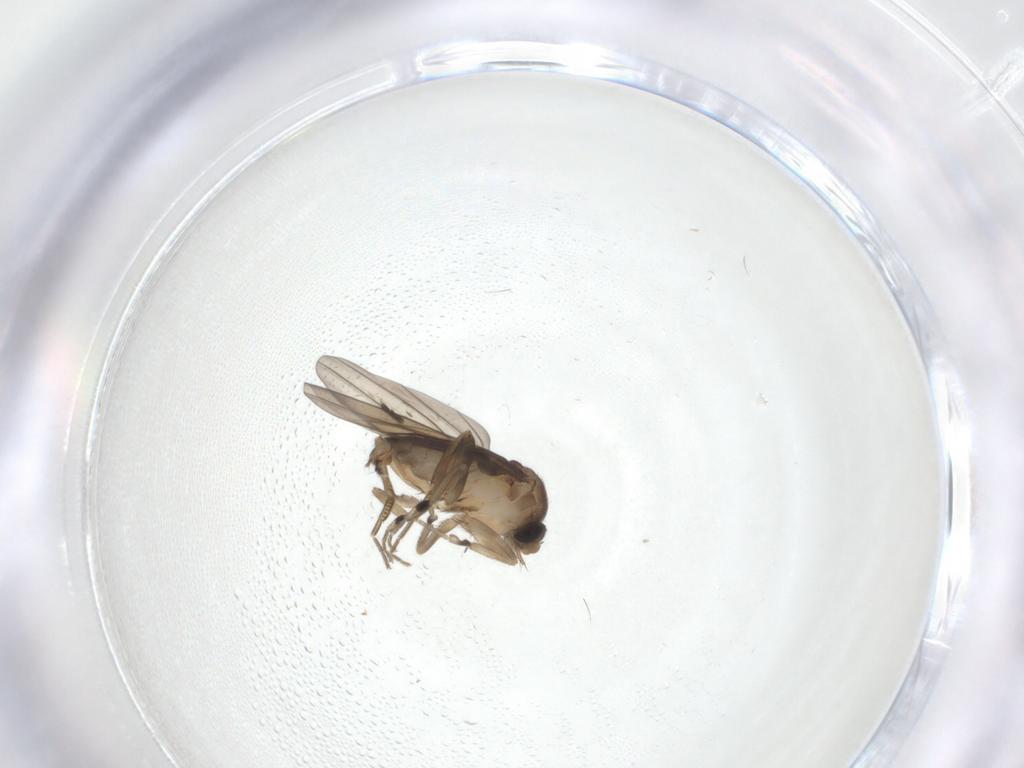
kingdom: Animalia
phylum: Arthropoda
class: Insecta
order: Diptera
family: Phoridae
